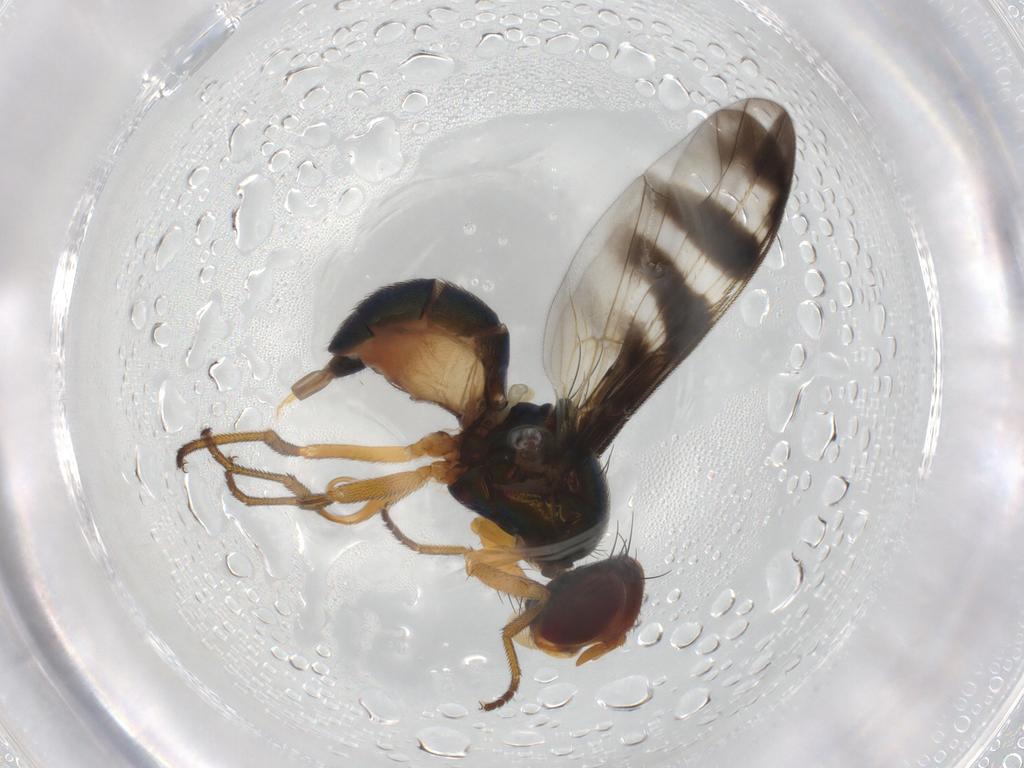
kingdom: Animalia
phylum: Arthropoda
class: Insecta
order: Diptera
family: Platystomatidae
